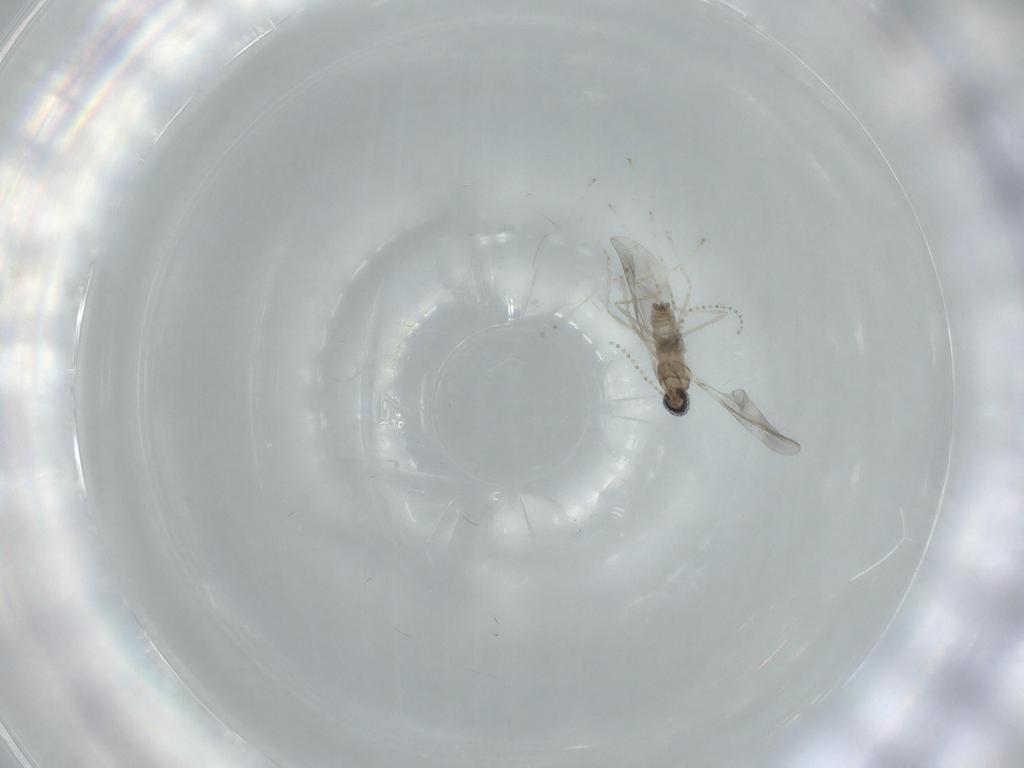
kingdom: Animalia
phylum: Arthropoda
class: Insecta
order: Diptera
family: Cecidomyiidae
